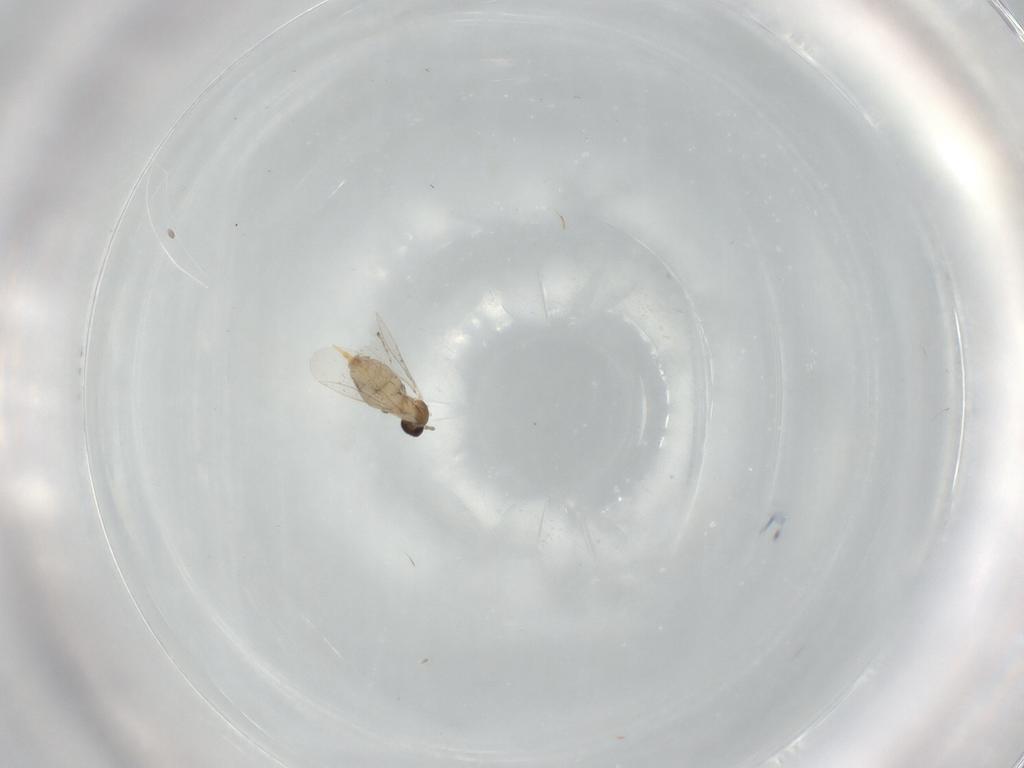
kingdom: Animalia
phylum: Arthropoda
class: Insecta
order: Diptera
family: Cecidomyiidae
